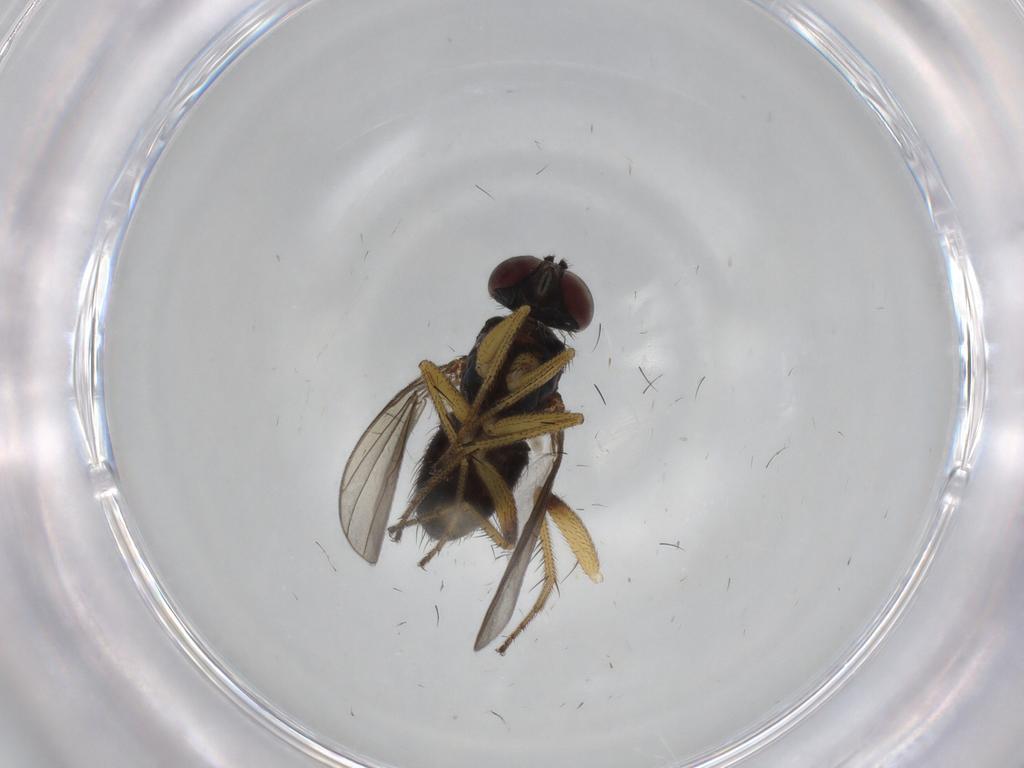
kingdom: Animalia
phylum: Arthropoda
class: Insecta
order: Diptera
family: Dolichopodidae
